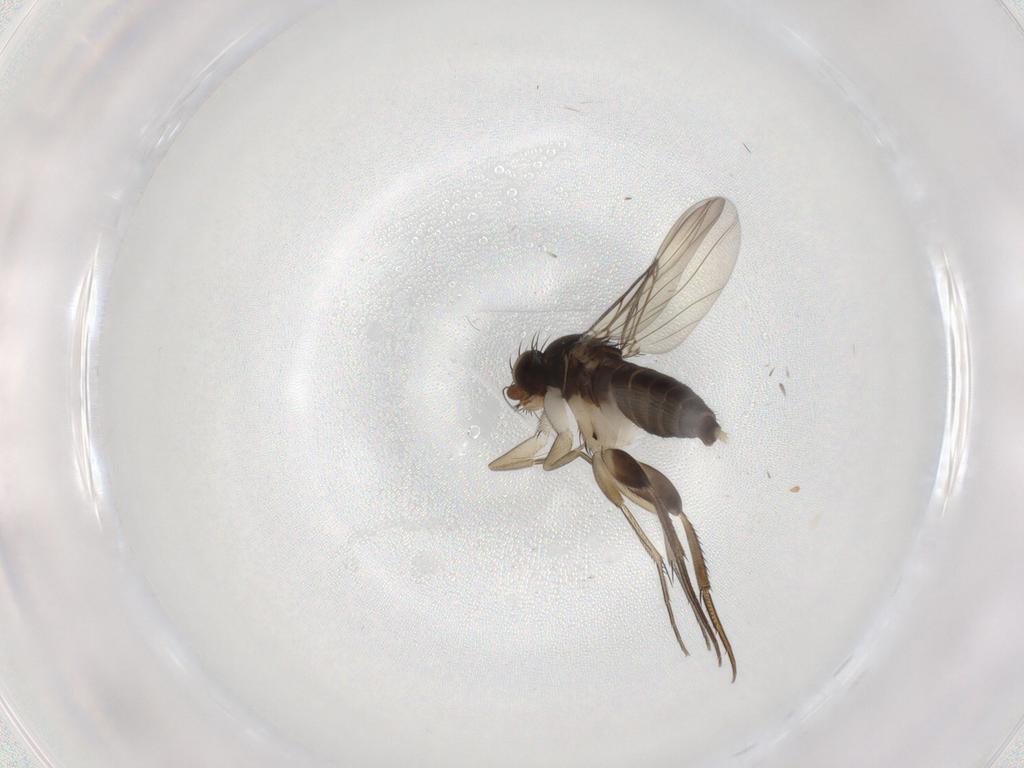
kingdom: Animalia
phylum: Arthropoda
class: Insecta
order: Diptera
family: Phoridae
